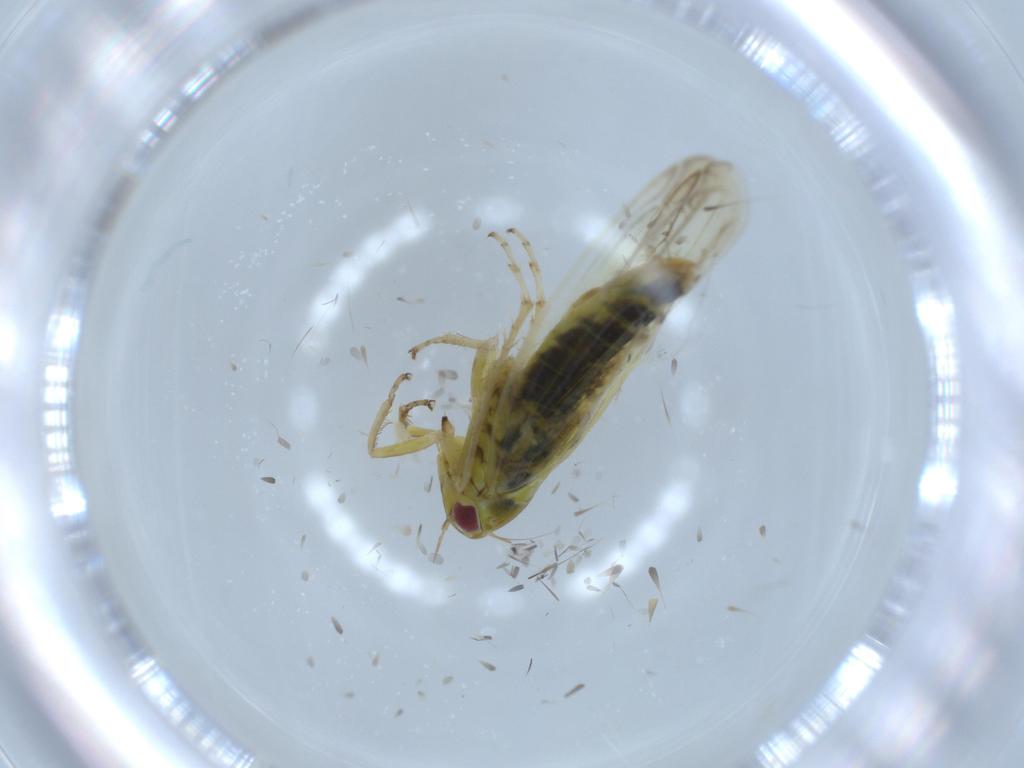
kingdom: Animalia
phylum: Arthropoda
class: Insecta
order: Hemiptera
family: Cicadellidae
